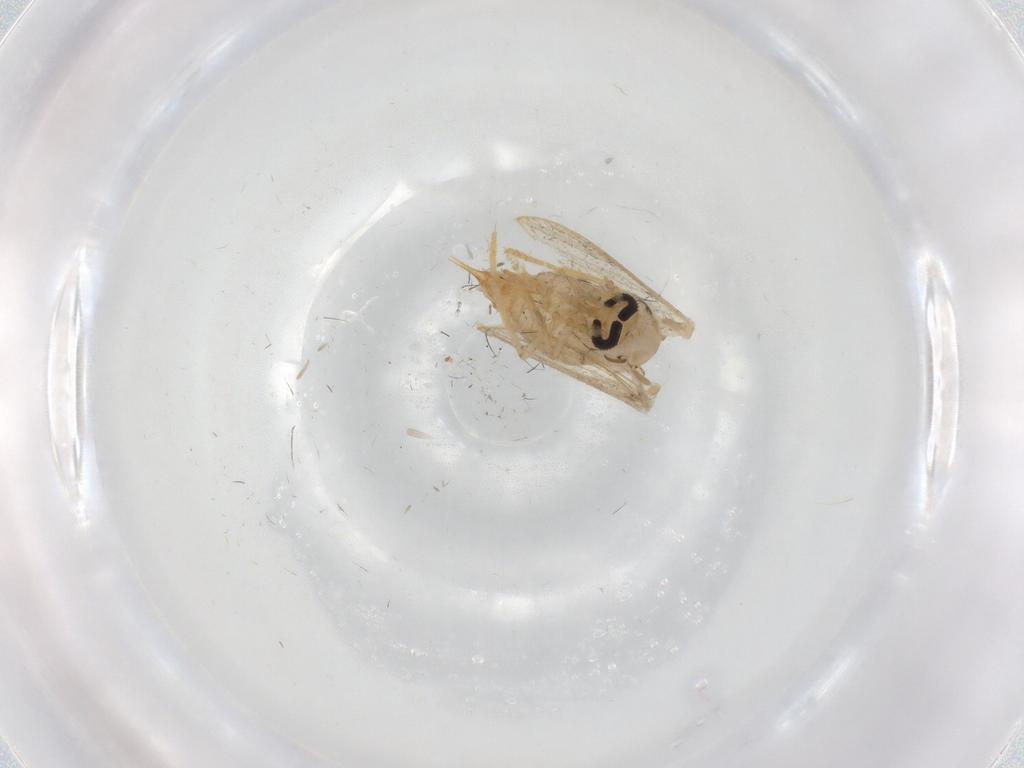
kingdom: Animalia
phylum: Arthropoda
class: Insecta
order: Diptera
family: Psychodidae
